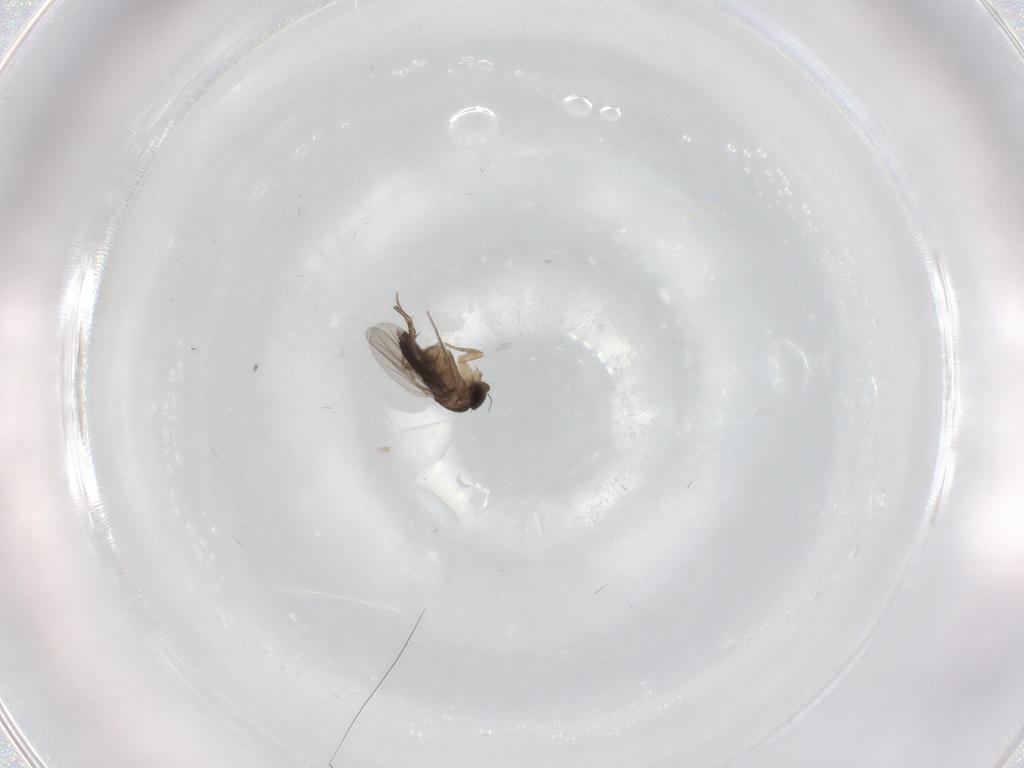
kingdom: Animalia
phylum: Arthropoda
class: Insecta
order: Diptera
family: Phoridae
